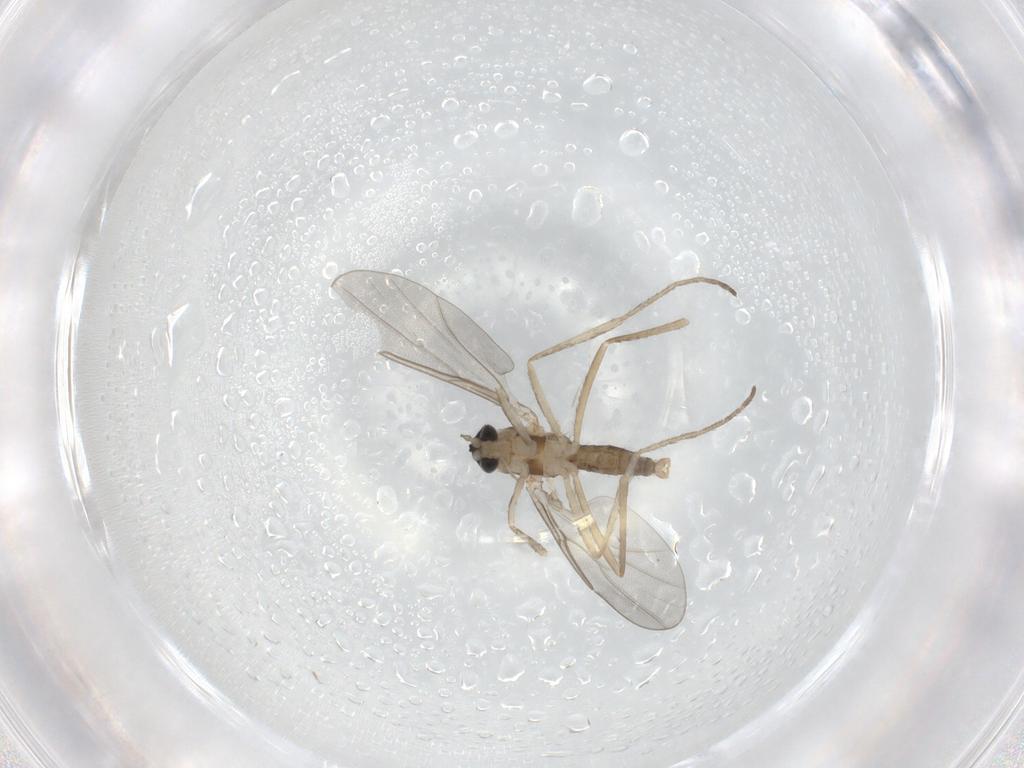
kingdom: Animalia
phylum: Arthropoda
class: Insecta
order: Diptera
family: Cecidomyiidae
